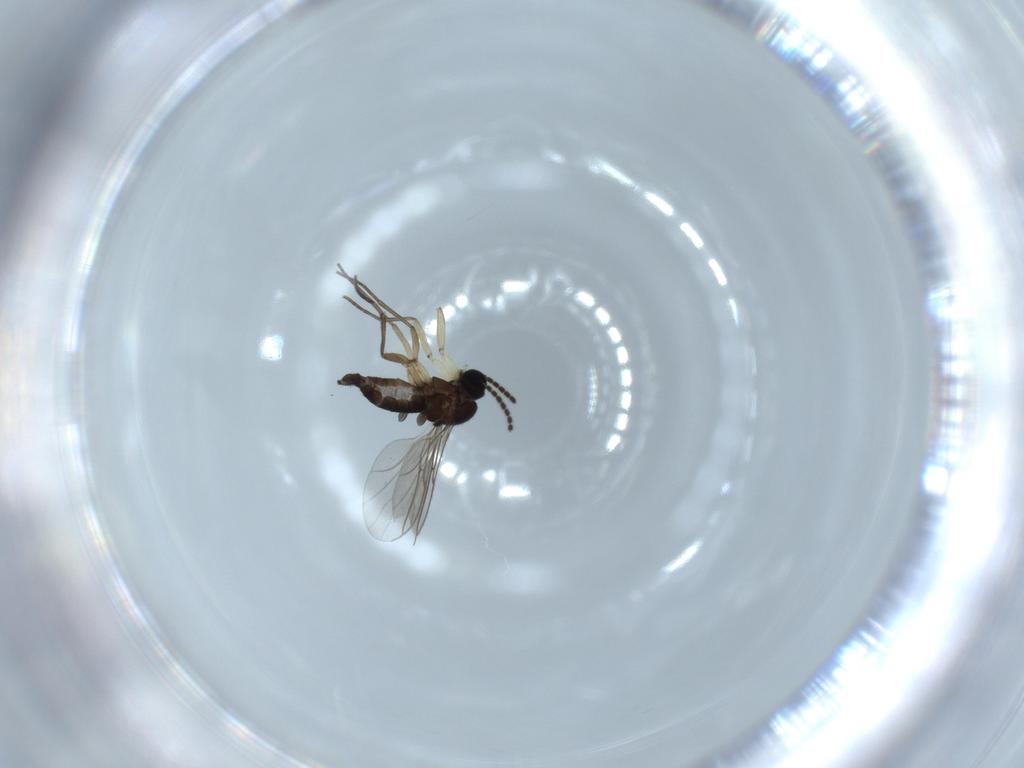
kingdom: Animalia
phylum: Arthropoda
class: Insecta
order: Diptera
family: Sciaridae
